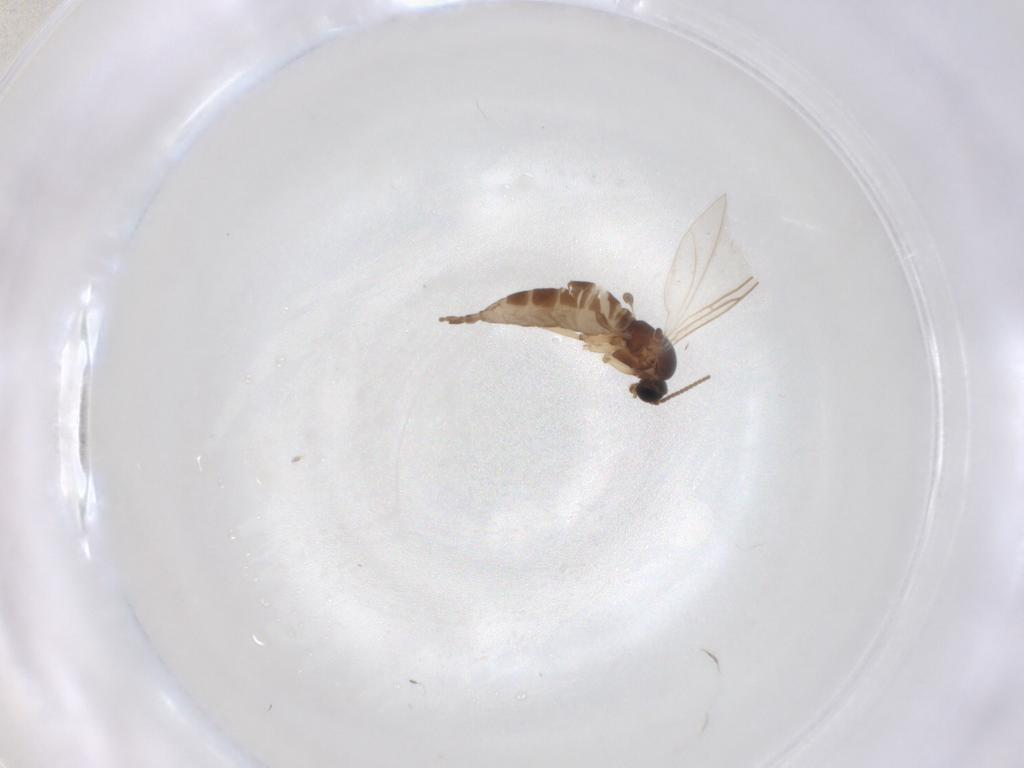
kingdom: Animalia
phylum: Arthropoda
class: Insecta
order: Diptera
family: Sciaridae
